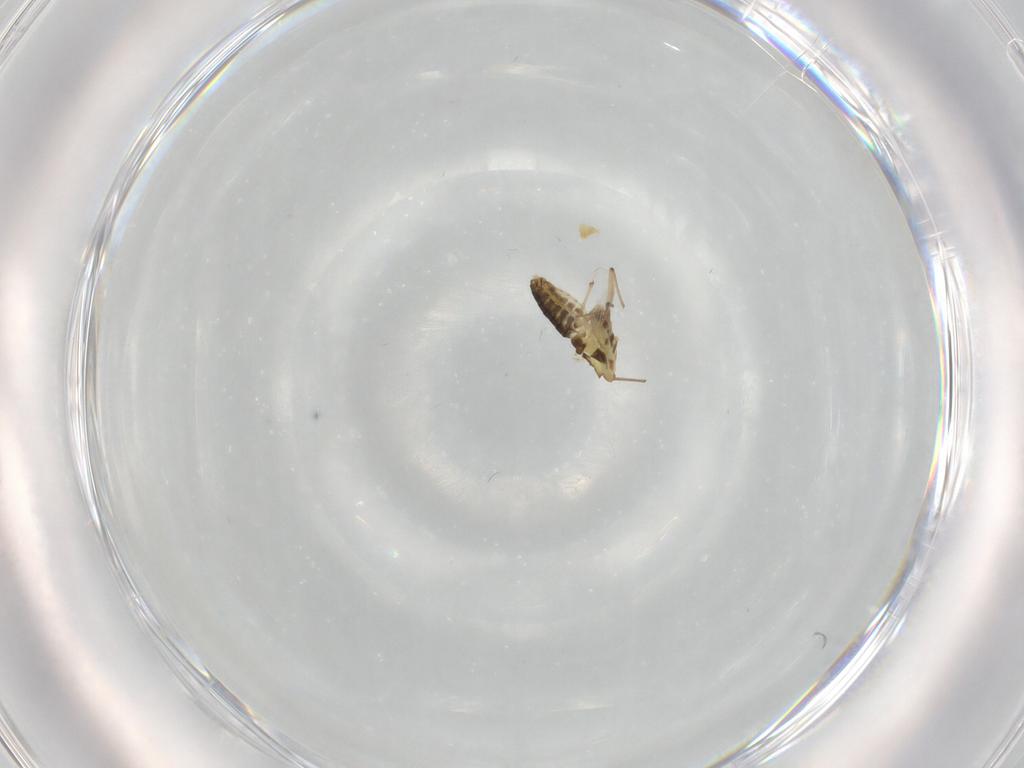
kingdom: Animalia
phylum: Arthropoda
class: Insecta
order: Diptera
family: Chironomidae
